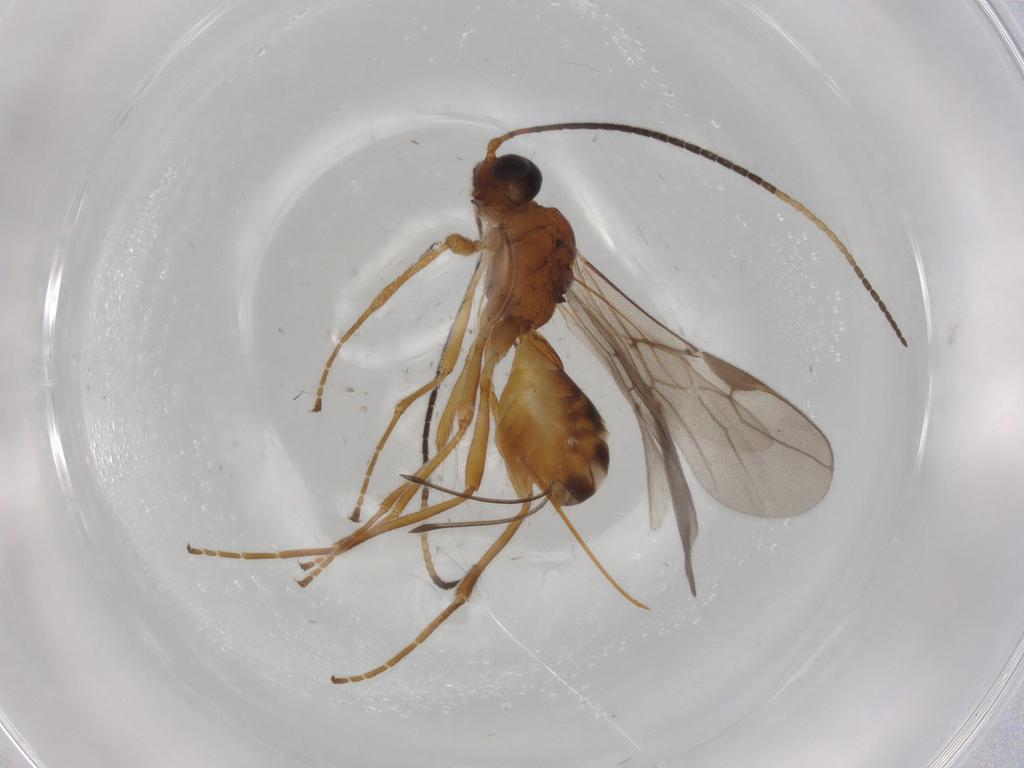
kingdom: Animalia
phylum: Arthropoda
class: Insecta
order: Hymenoptera
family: Braconidae
